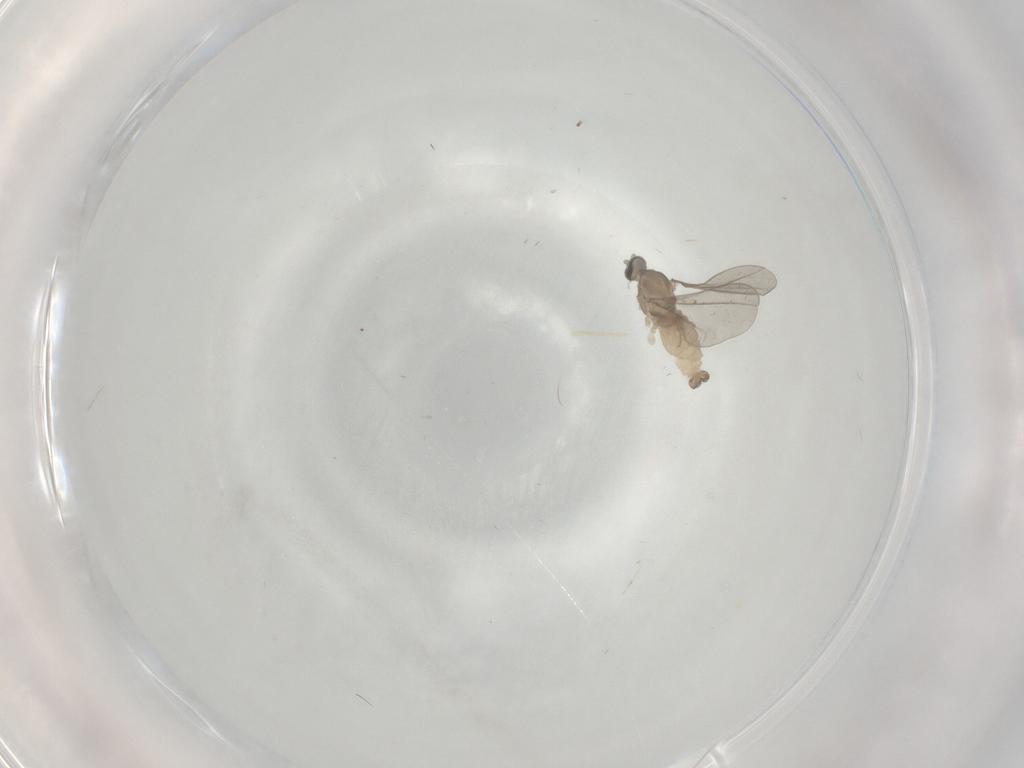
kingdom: Animalia
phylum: Arthropoda
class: Insecta
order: Diptera
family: Cecidomyiidae
